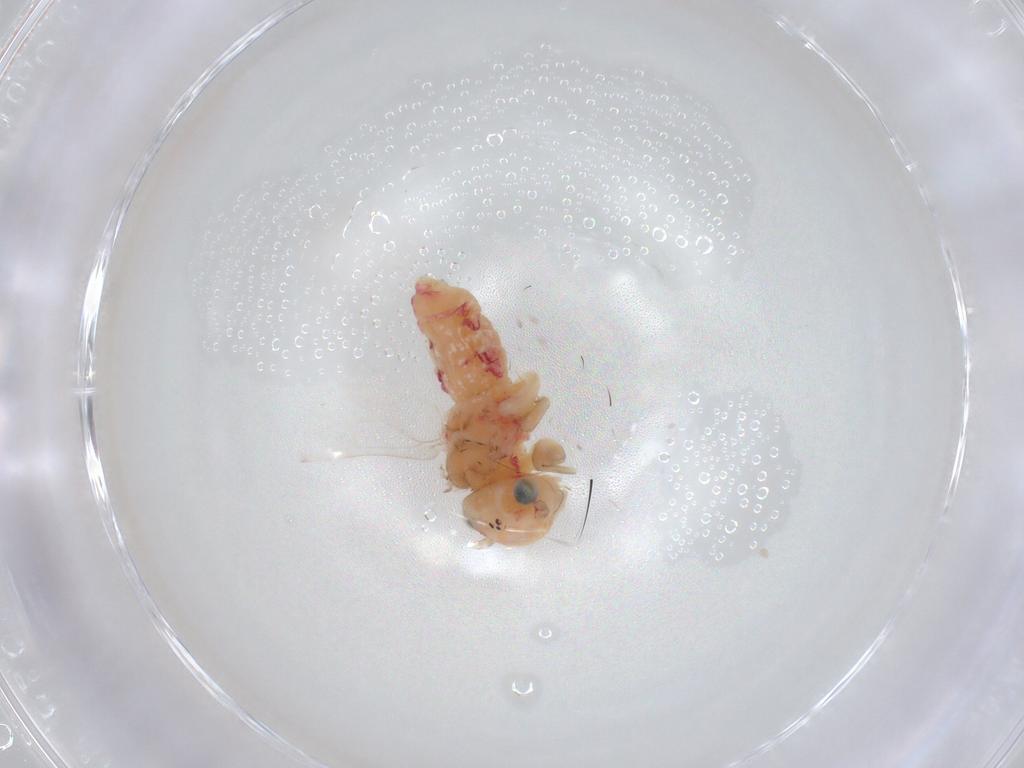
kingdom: Animalia
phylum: Arthropoda
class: Insecta
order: Psocodea
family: Hemipsocidae
